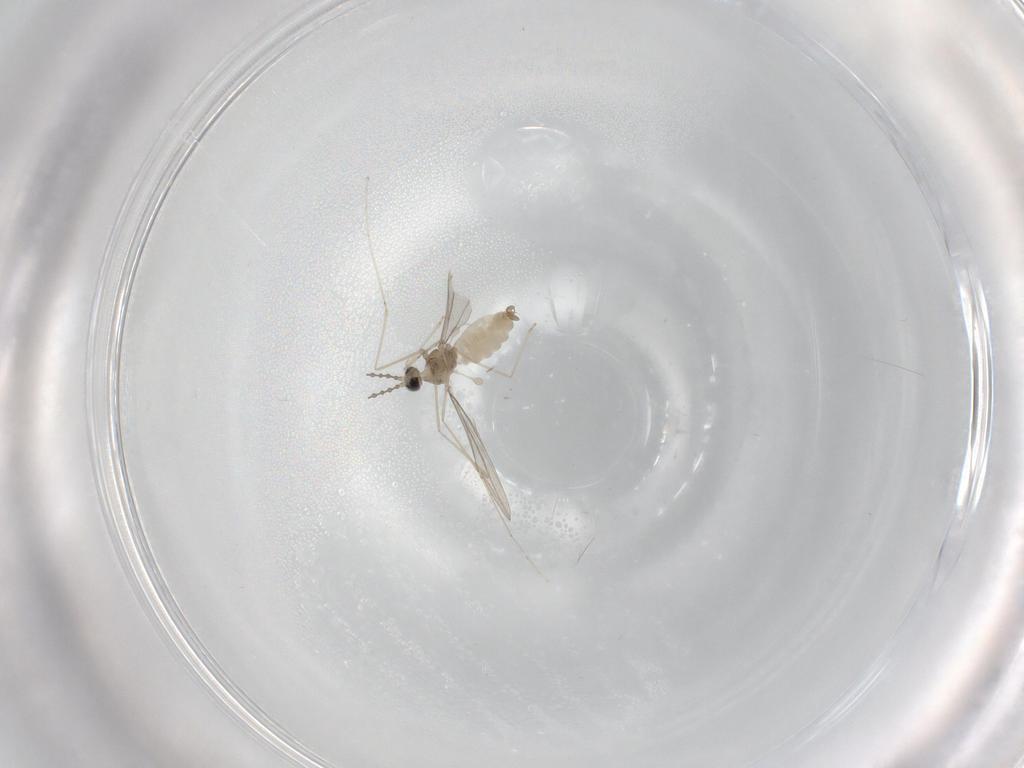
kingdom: Animalia
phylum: Arthropoda
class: Insecta
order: Diptera
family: Cecidomyiidae
